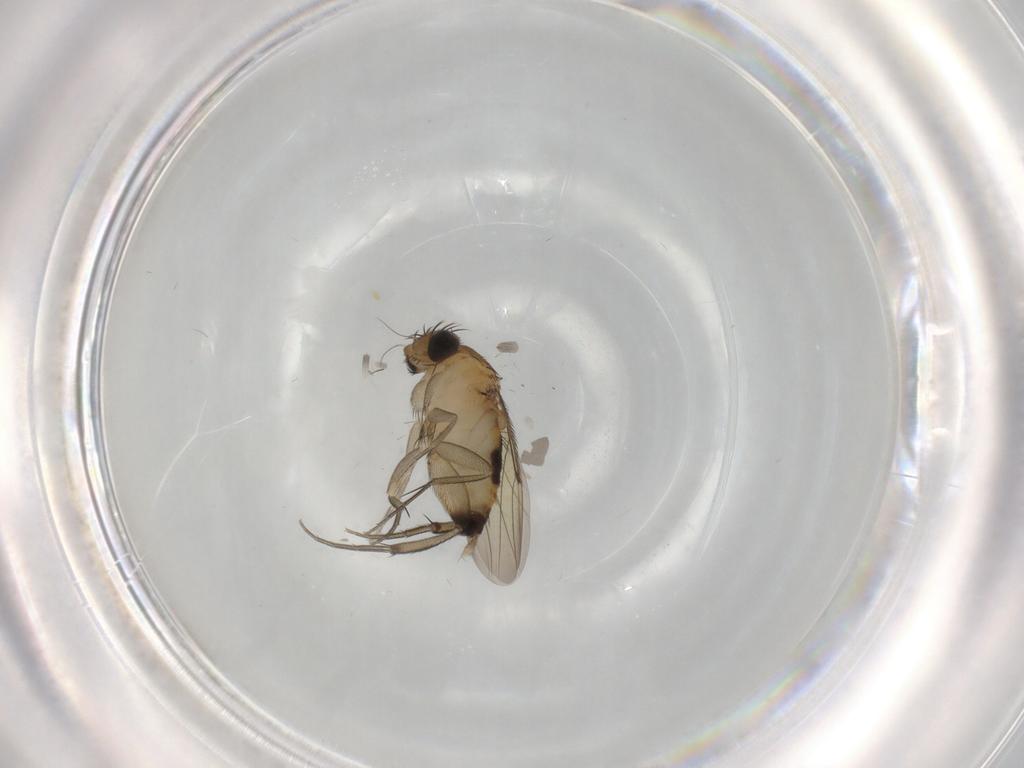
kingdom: Animalia
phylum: Arthropoda
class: Insecta
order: Diptera
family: Phoridae
